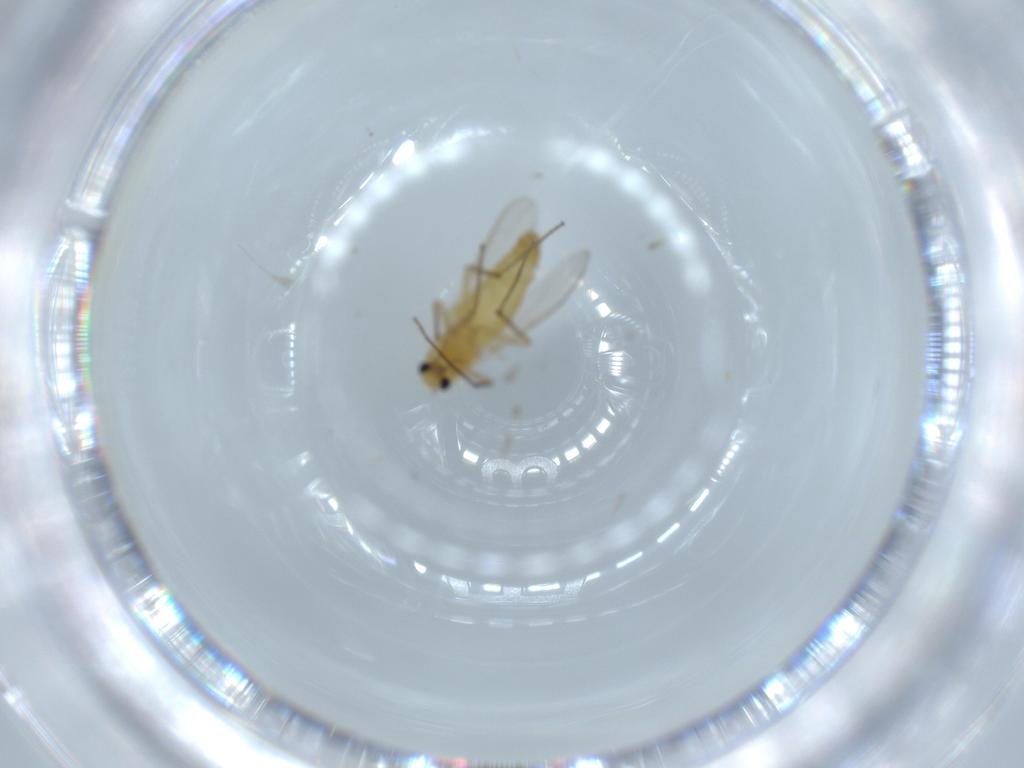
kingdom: Animalia
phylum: Arthropoda
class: Insecta
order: Diptera
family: Chironomidae
